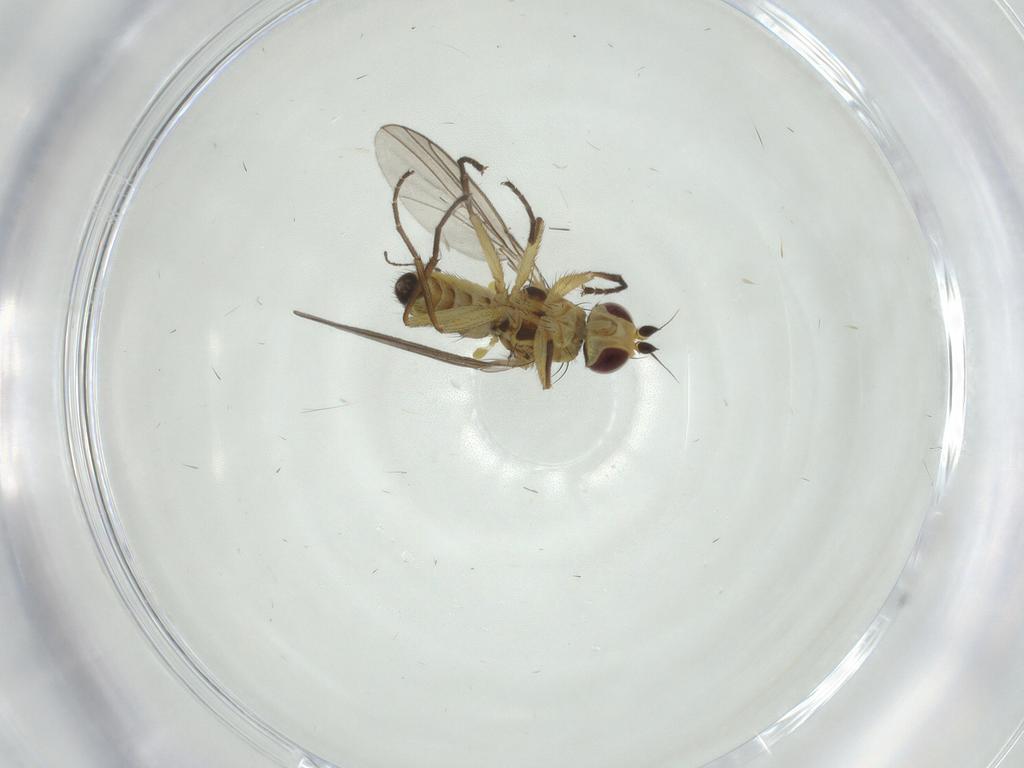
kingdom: Animalia
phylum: Arthropoda
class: Insecta
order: Diptera
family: Agromyzidae
